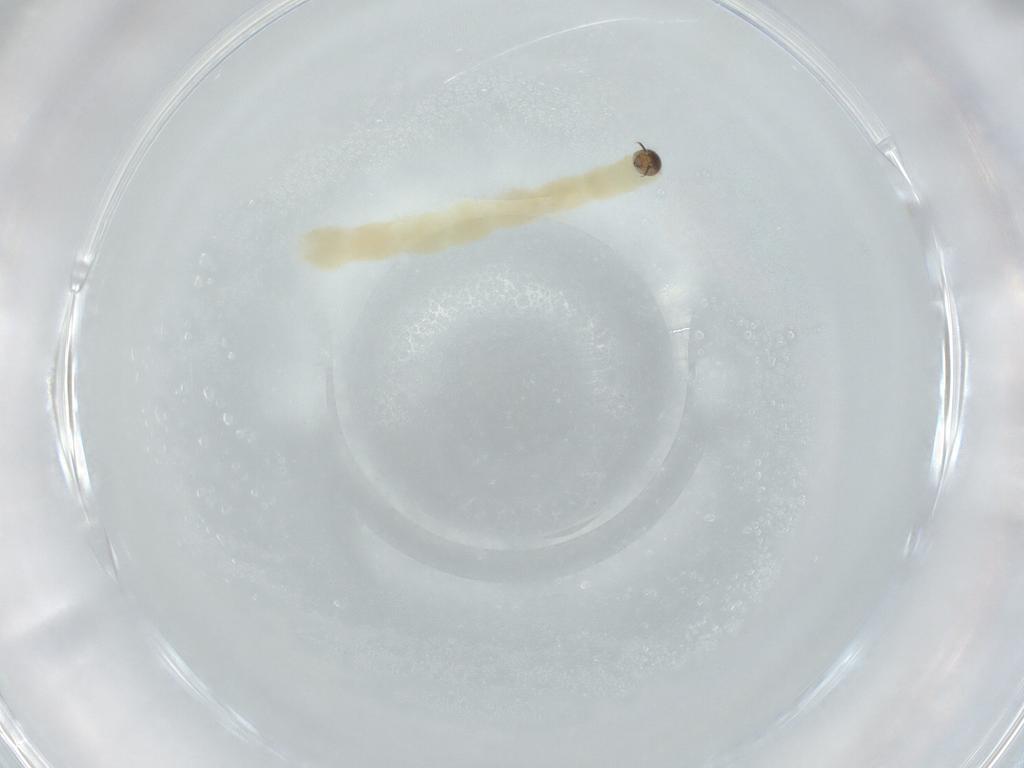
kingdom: Animalia
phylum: Arthropoda
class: Insecta
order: Diptera
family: Chironomidae
